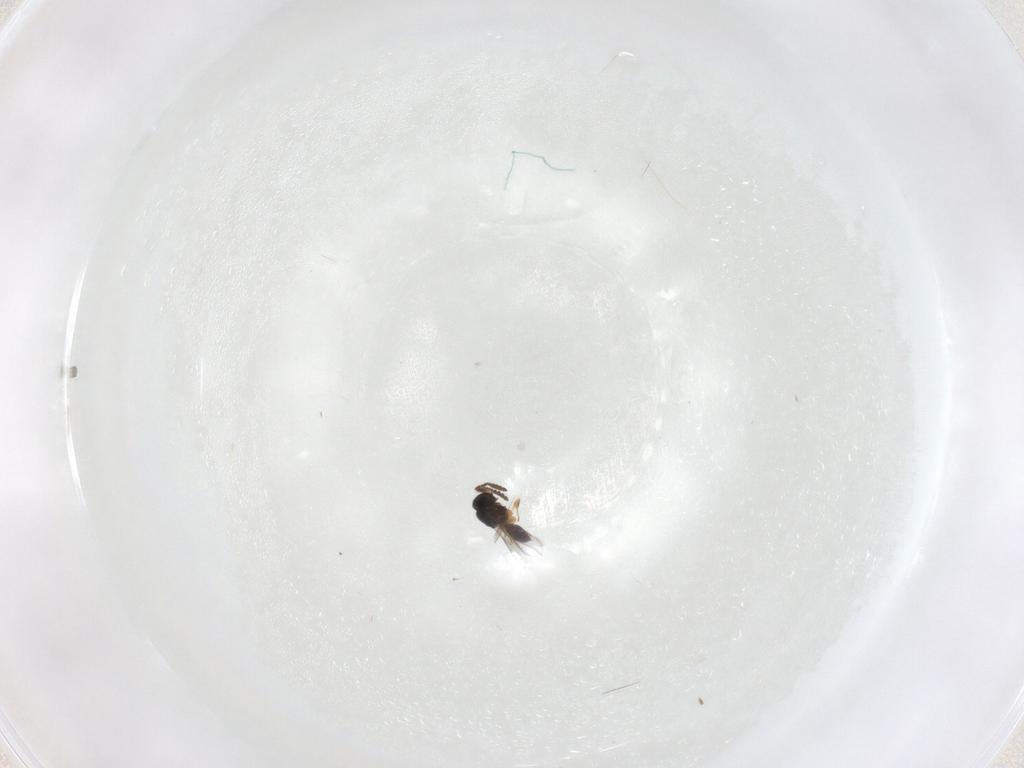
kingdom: Animalia
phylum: Arthropoda
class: Insecta
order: Hymenoptera
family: Scelionidae
